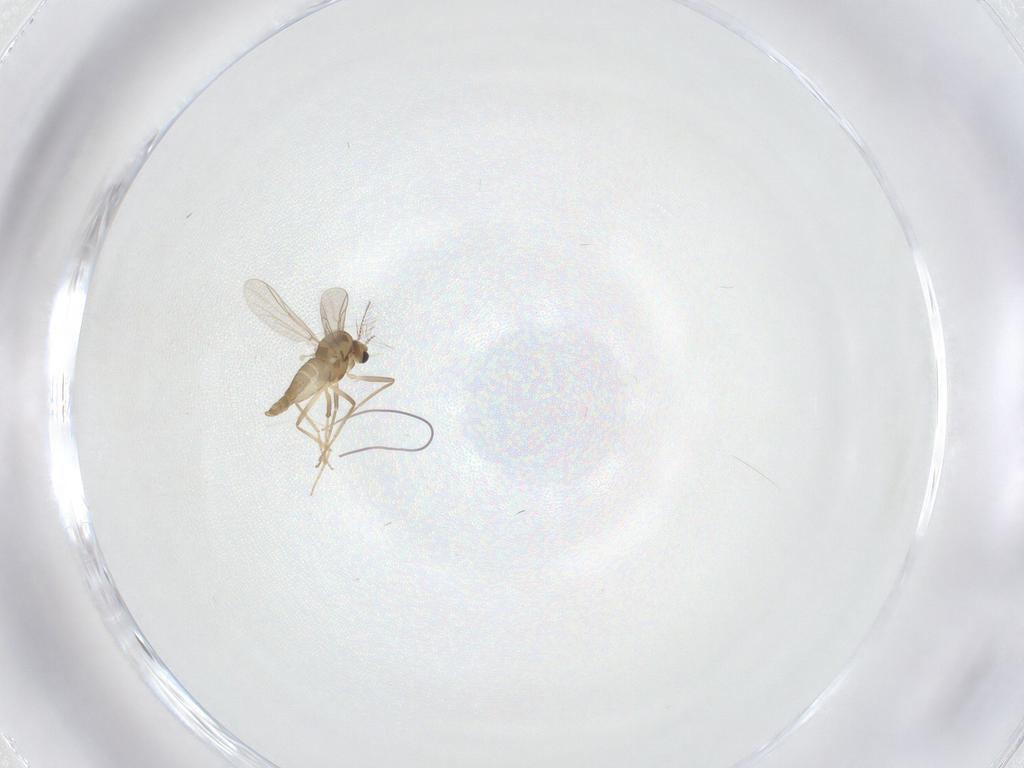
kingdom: Animalia
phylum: Arthropoda
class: Insecta
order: Diptera
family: Chironomidae
